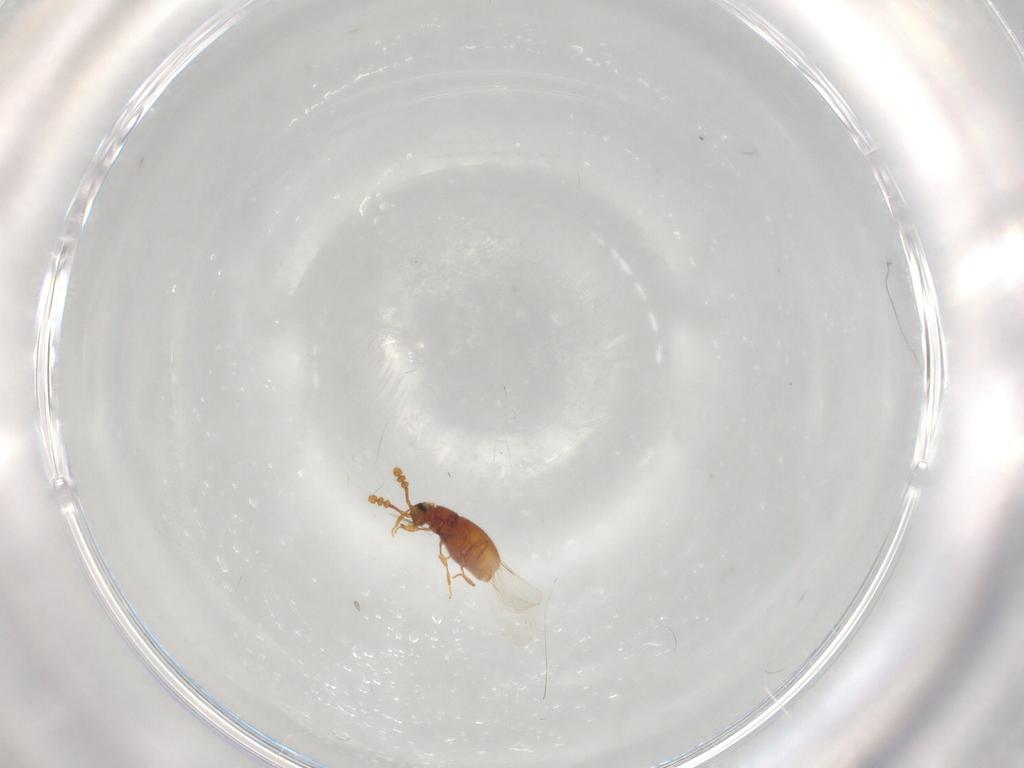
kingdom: Animalia
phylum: Arthropoda
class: Insecta
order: Coleoptera
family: Staphylinidae
